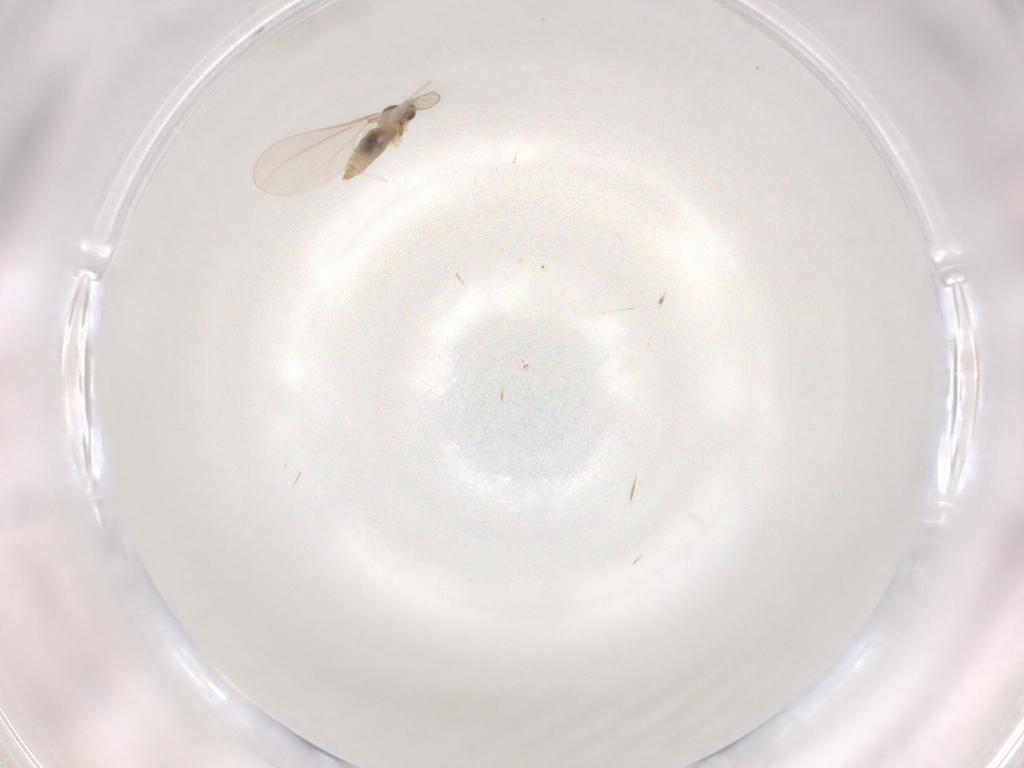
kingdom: Animalia
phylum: Arthropoda
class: Insecta
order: Diptera
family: Cecidomyiidae
